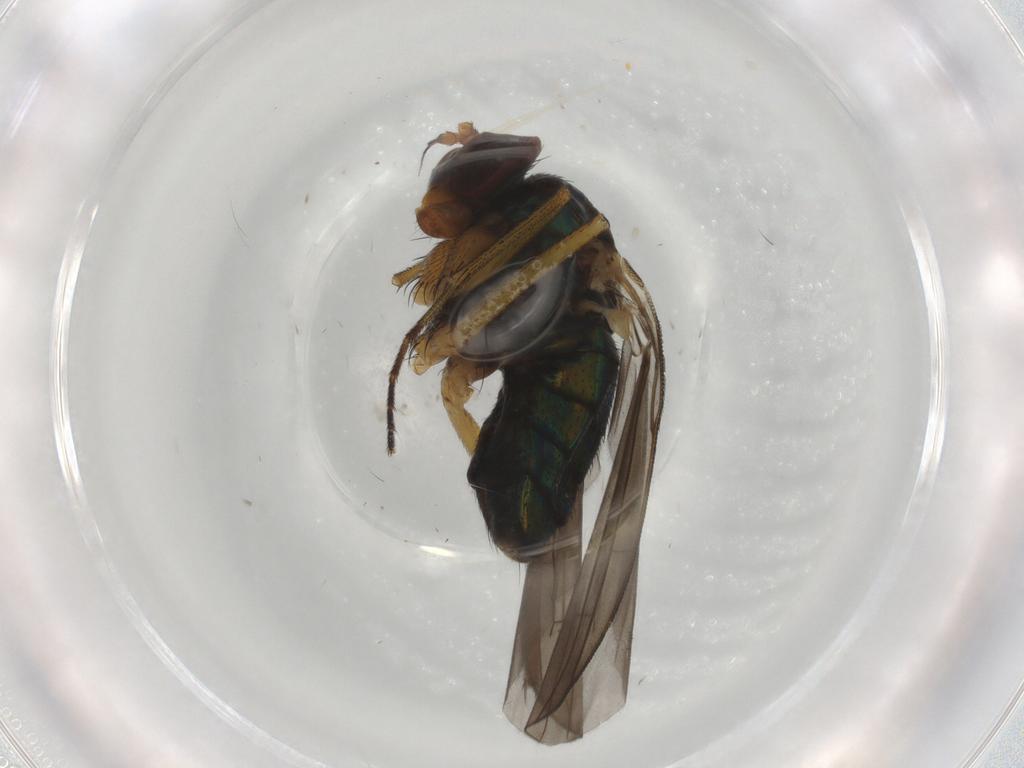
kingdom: Animalia
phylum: Arthropoda
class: Insecta
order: Diptera
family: Dolichopodidae
